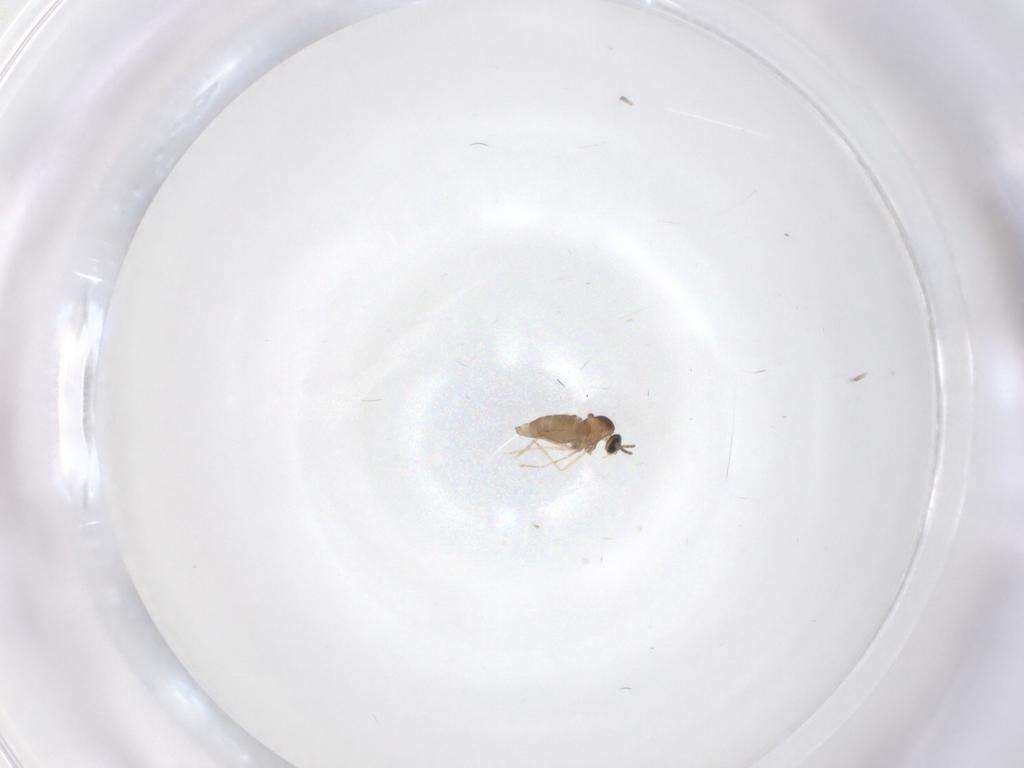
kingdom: Animalia
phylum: Arthropoda
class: Insecta
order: Diptera
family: Cecidomyiidae
